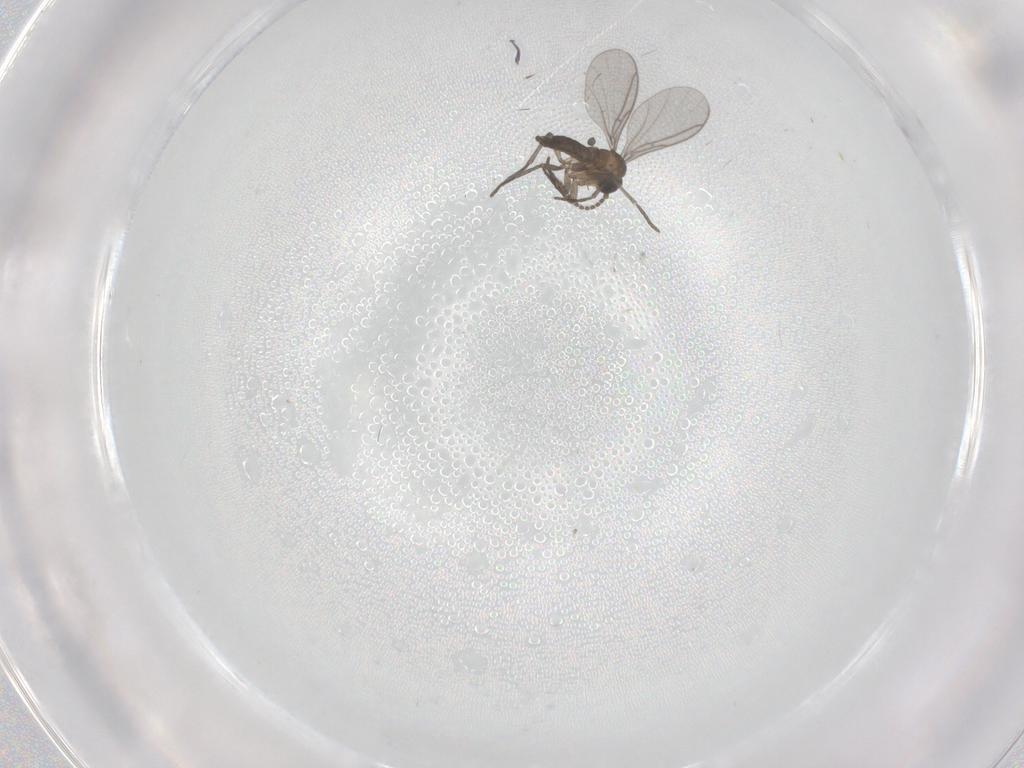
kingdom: Animalia
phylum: Arthropoda
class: Insecta
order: Diptera
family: Sciaridae
